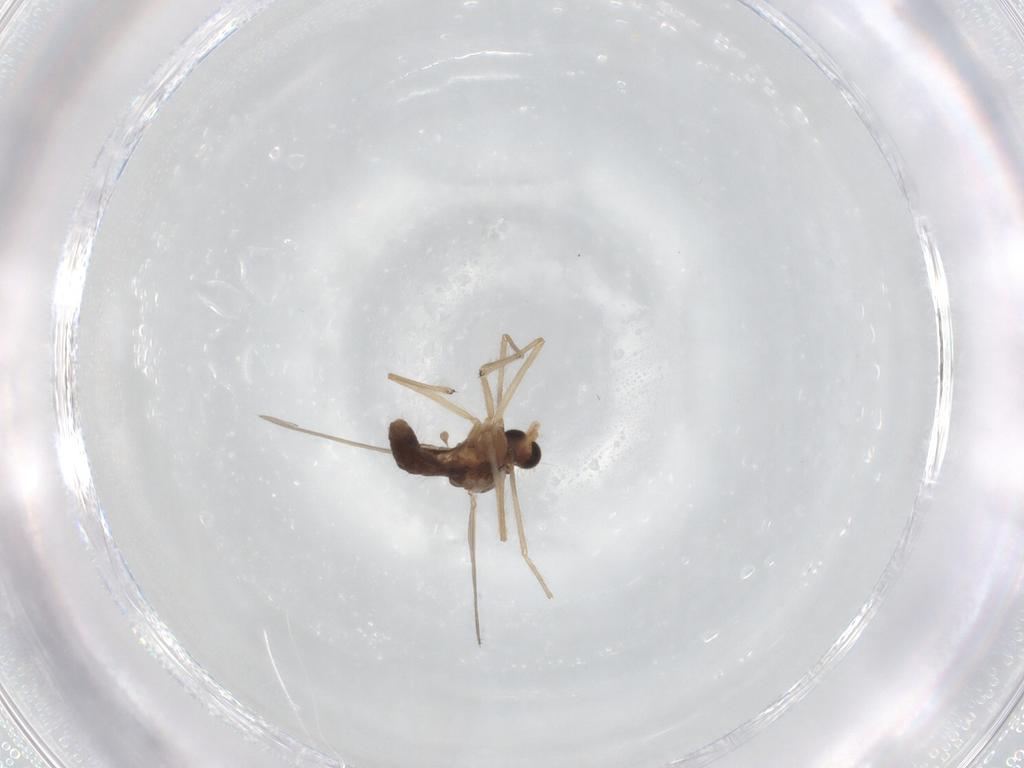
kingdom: Animalia
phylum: Arthropoda
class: Insecta
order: Diptera
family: Chironomidae
